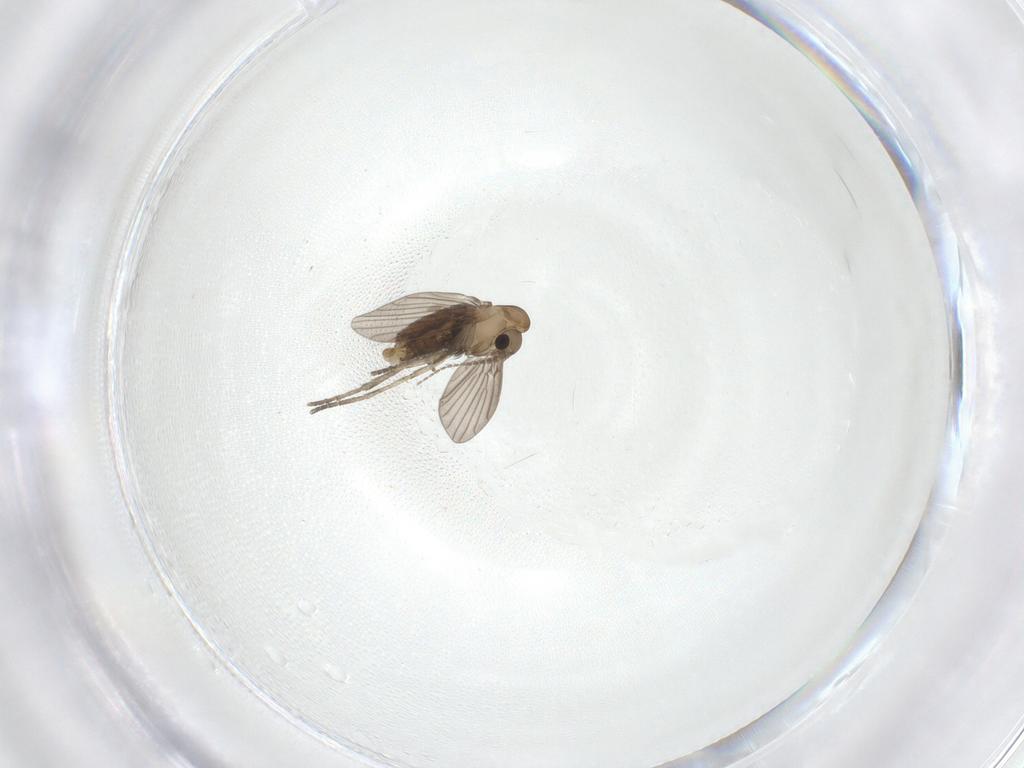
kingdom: Animalia
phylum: Arthropoda
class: Insecta
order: Diptera
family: Psychodidae
